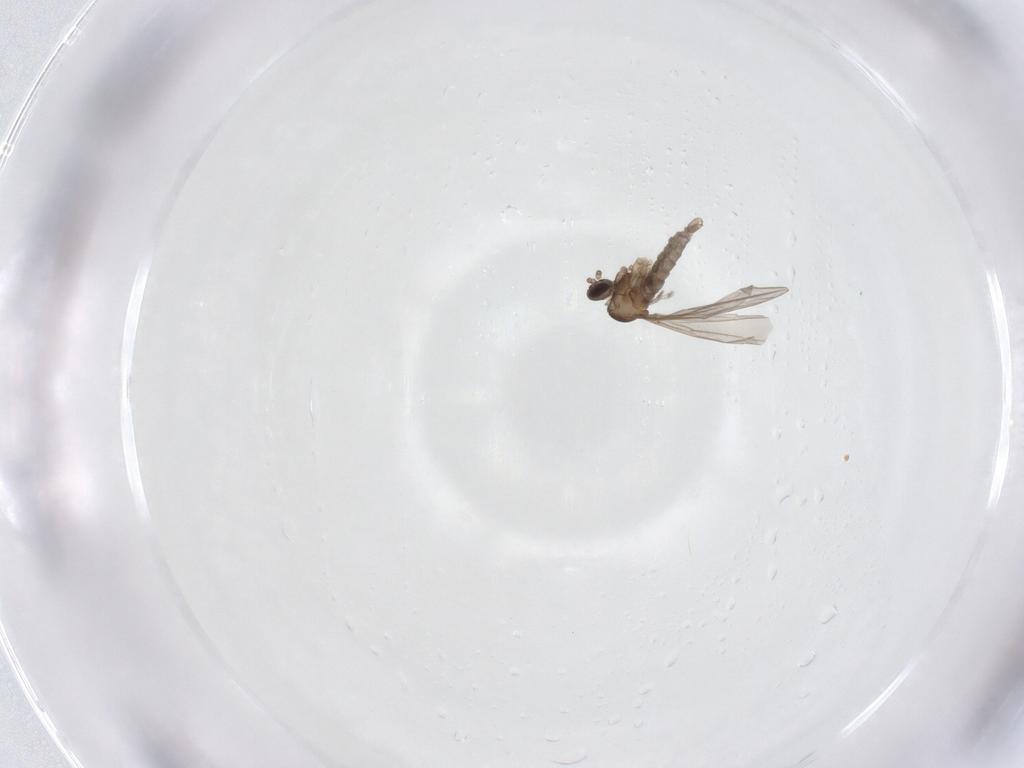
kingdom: Animalia
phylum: Arthropoda
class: Insecta
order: Diptera
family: Cecidomyiidae
